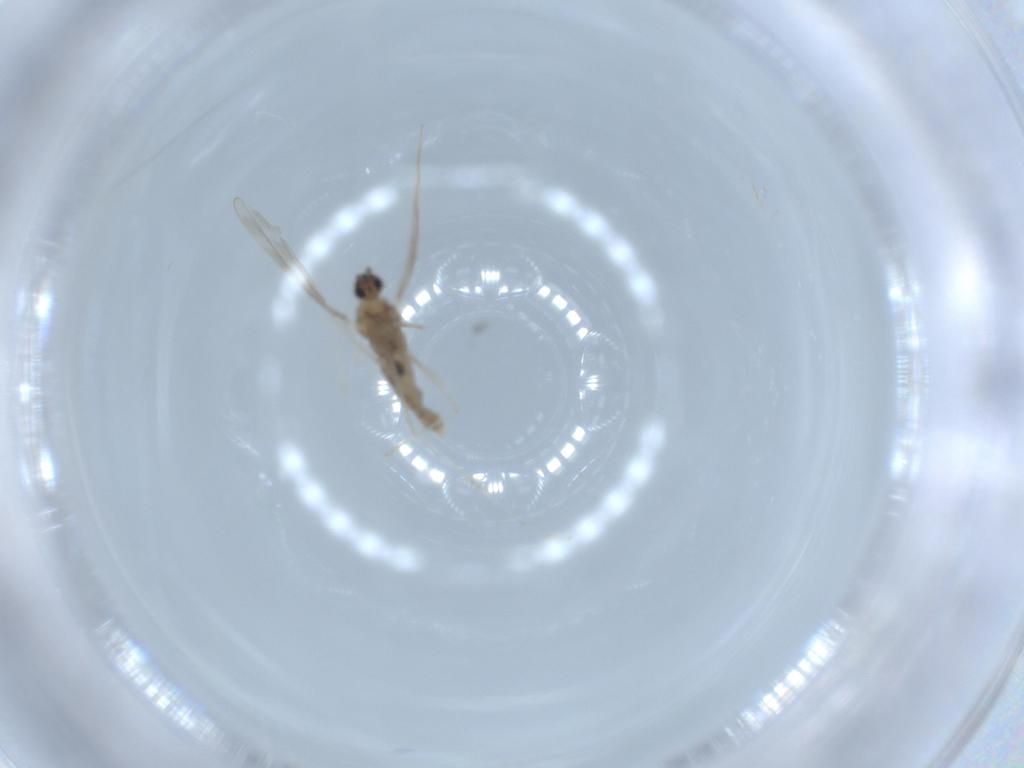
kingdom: Animalia
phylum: Arthropoda
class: Insecta
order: Diptera
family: Cecidomyiidae
